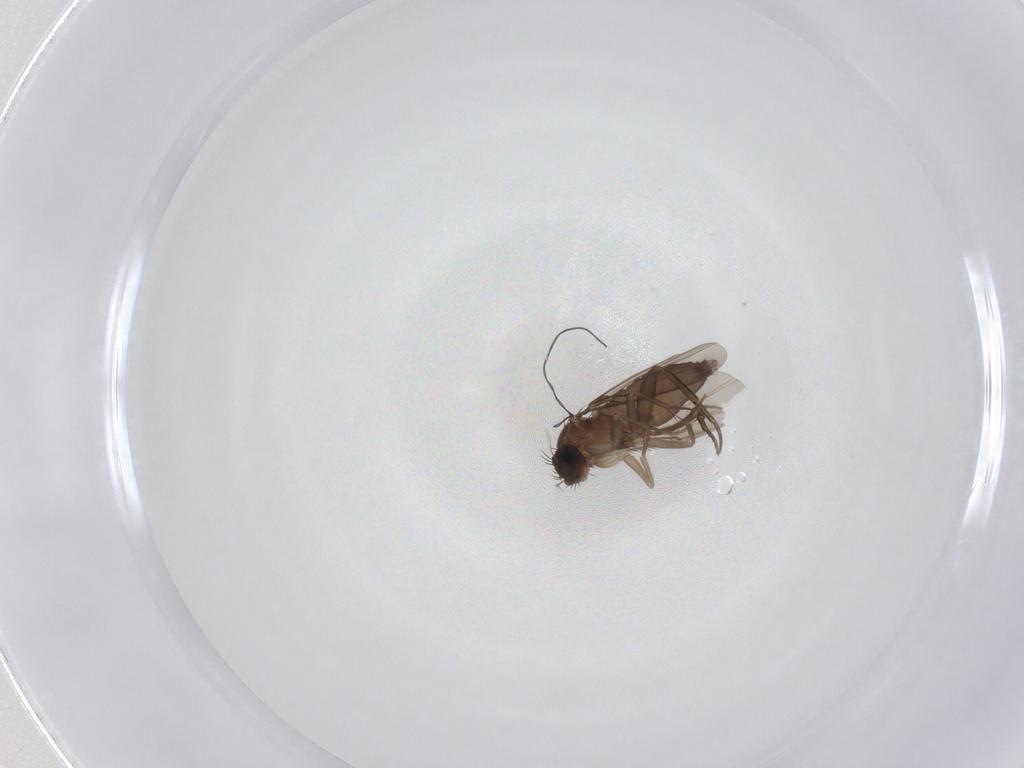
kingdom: Animalia
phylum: Arthropoda
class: Insecta
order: Diptera
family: Phoridae
